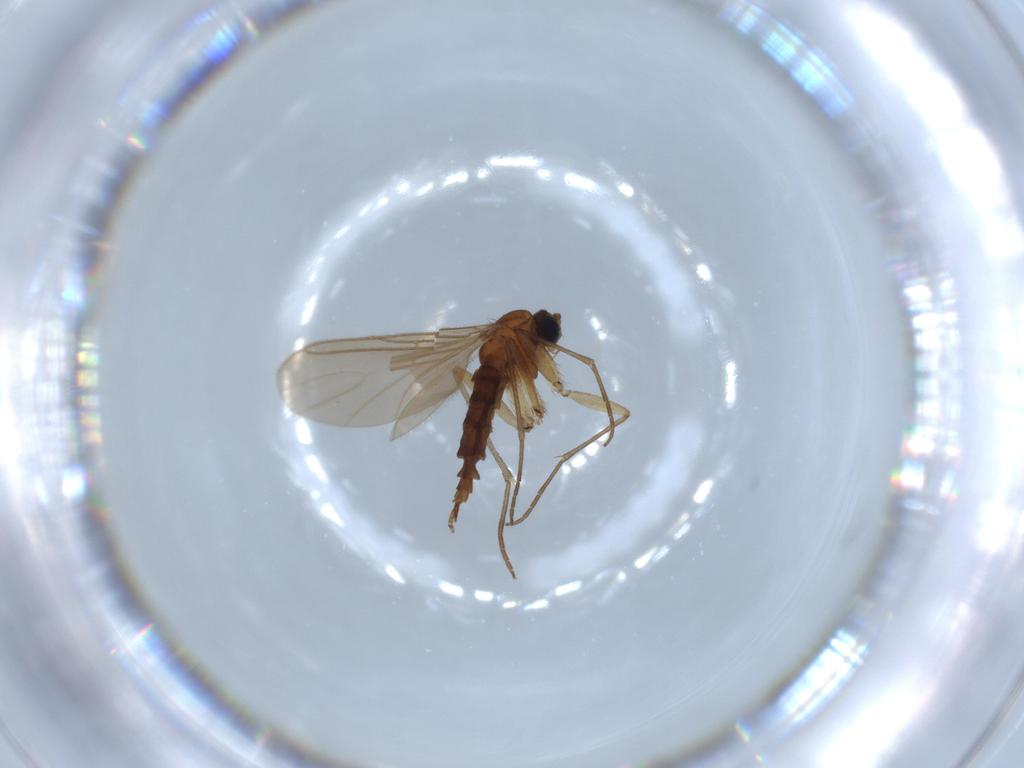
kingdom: Animalia
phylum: Arthropoda
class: Insecta
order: Diptera
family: Sciaridae
